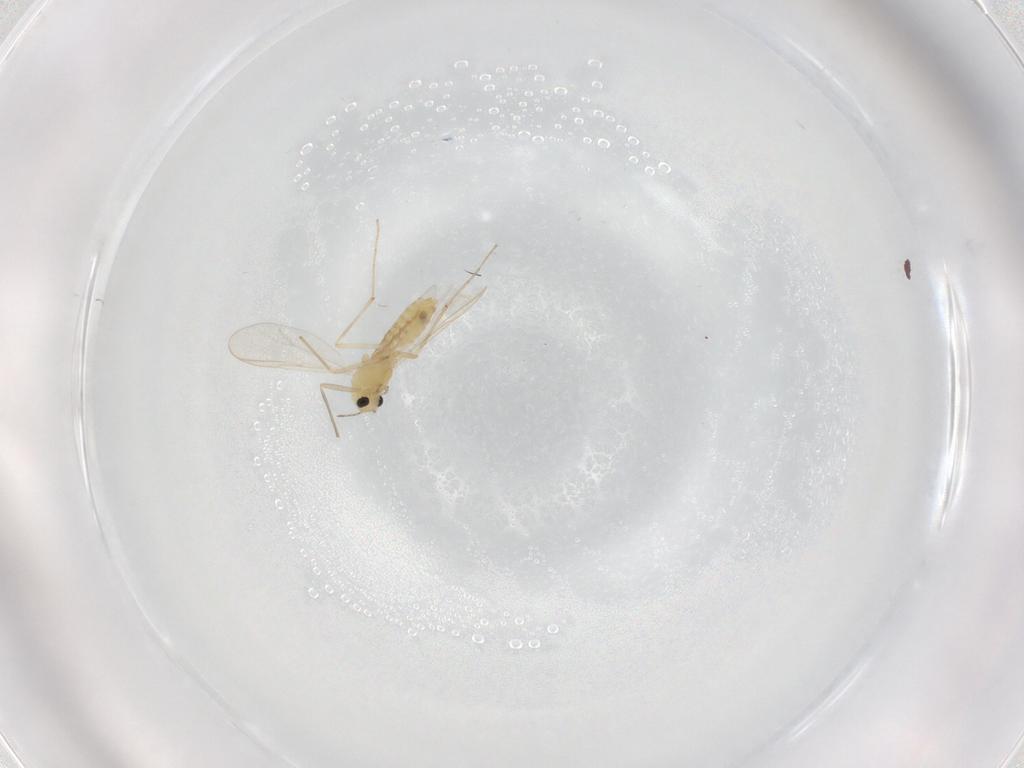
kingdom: Animalia
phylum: Arthropoda
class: Insecta
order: Diptera
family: Chironomidae
